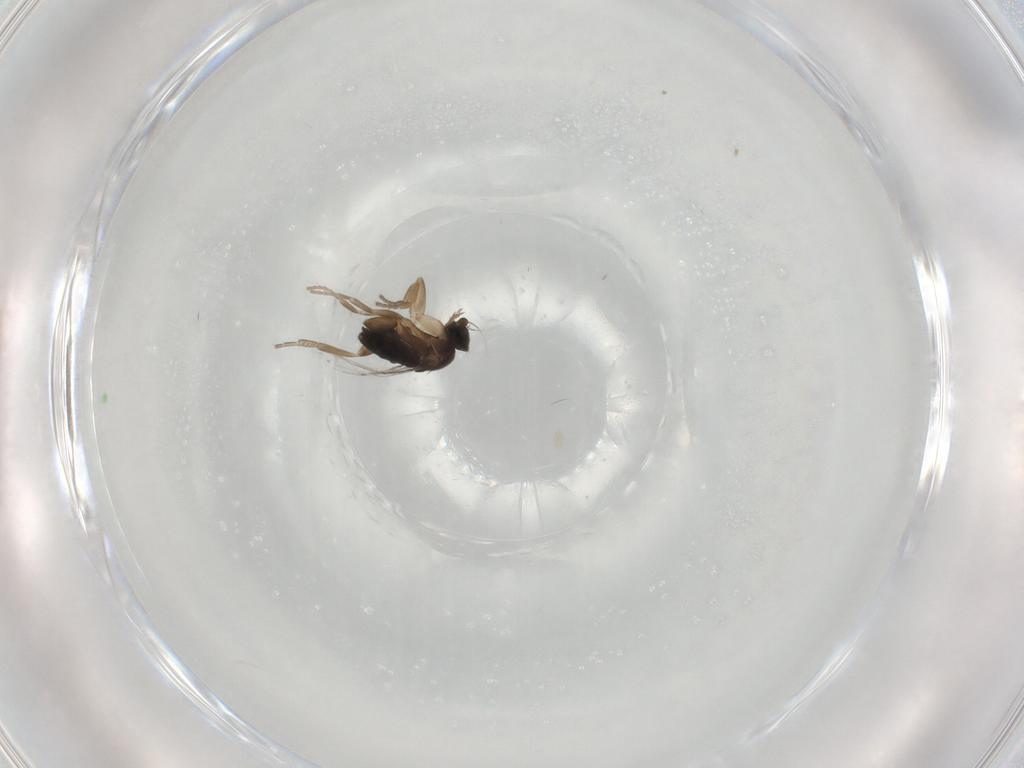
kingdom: Animalia
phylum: Arthropoda
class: Insecta
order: Diptera
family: Phoridae
